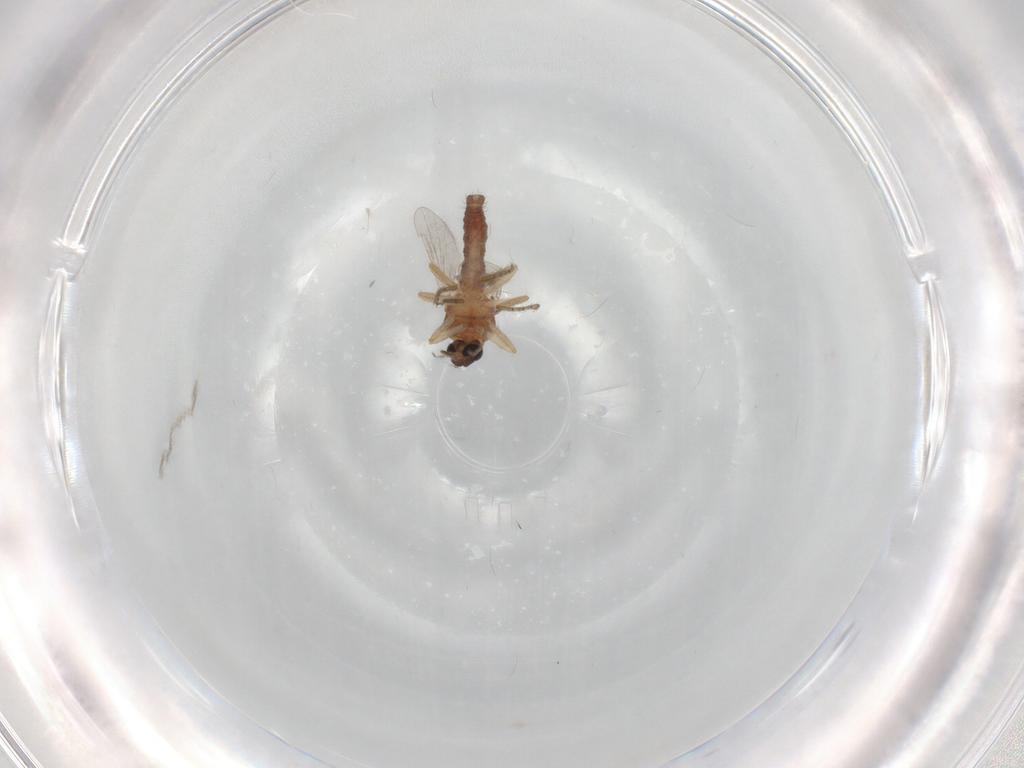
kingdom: Animalia
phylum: Arthropoda
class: Insecta
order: Diptera
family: Ceratopogonidae
